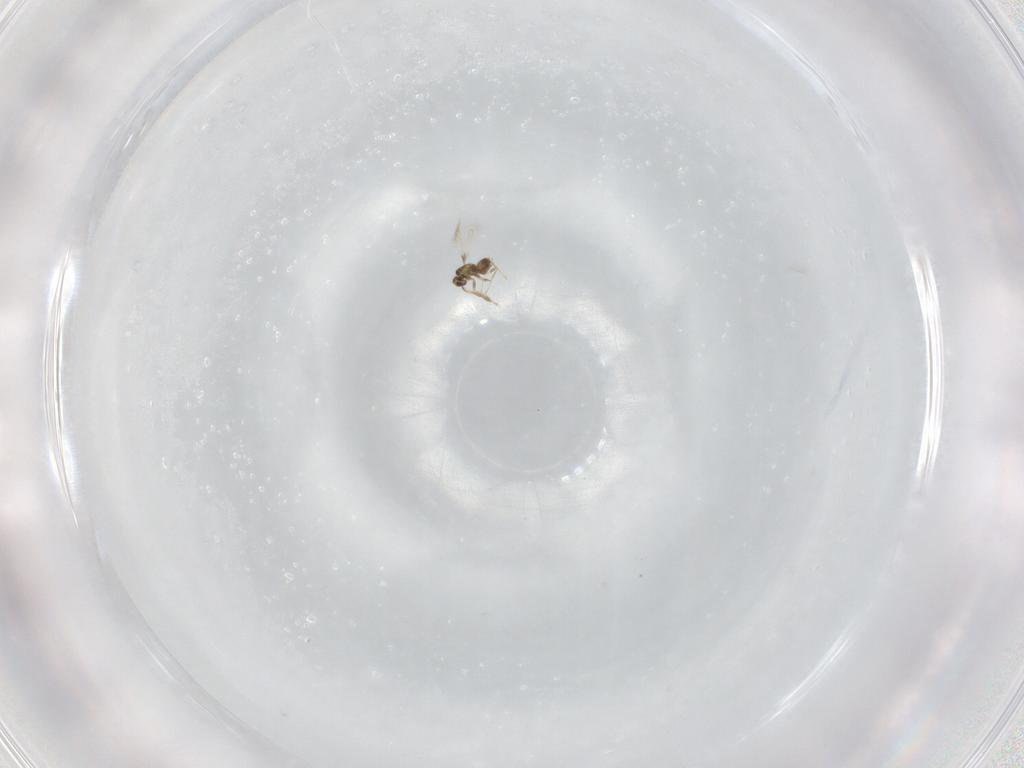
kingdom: Animalia
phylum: Arthropoda
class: Insecta
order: Hymenoptera
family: Mymaridae
